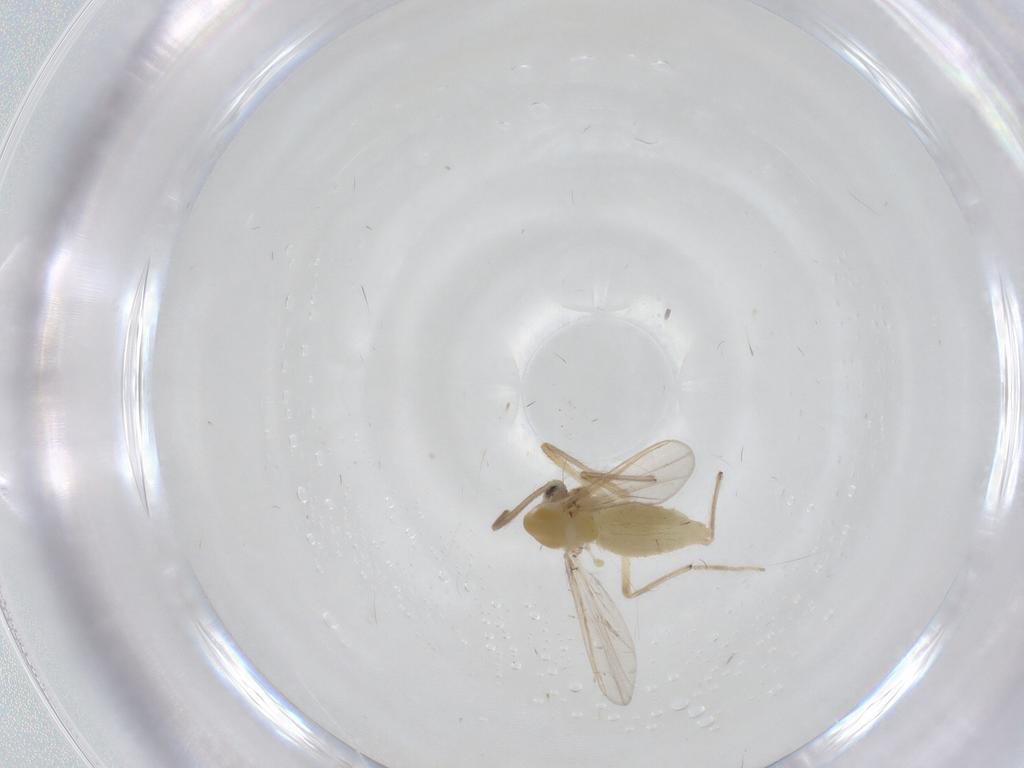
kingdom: Animalia
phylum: Arthropoda
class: Insecta
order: Diptera
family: Chironomidae
